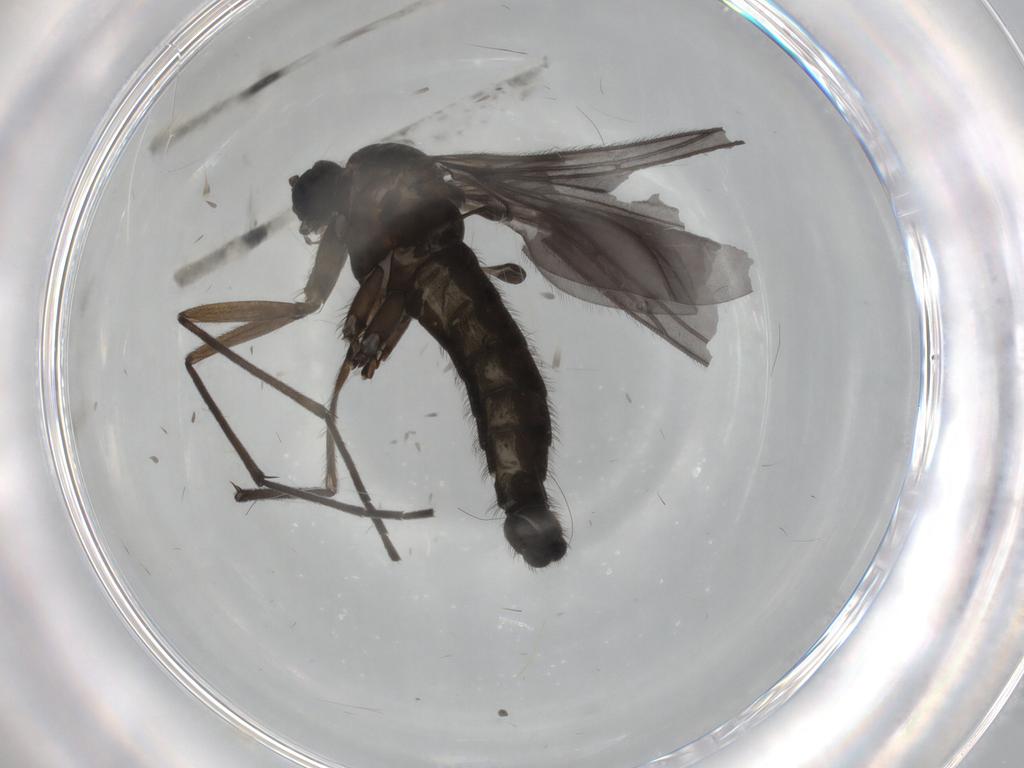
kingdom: Animalia
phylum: Arthropoda
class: Insecta
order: Diptera
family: Sciaridae
